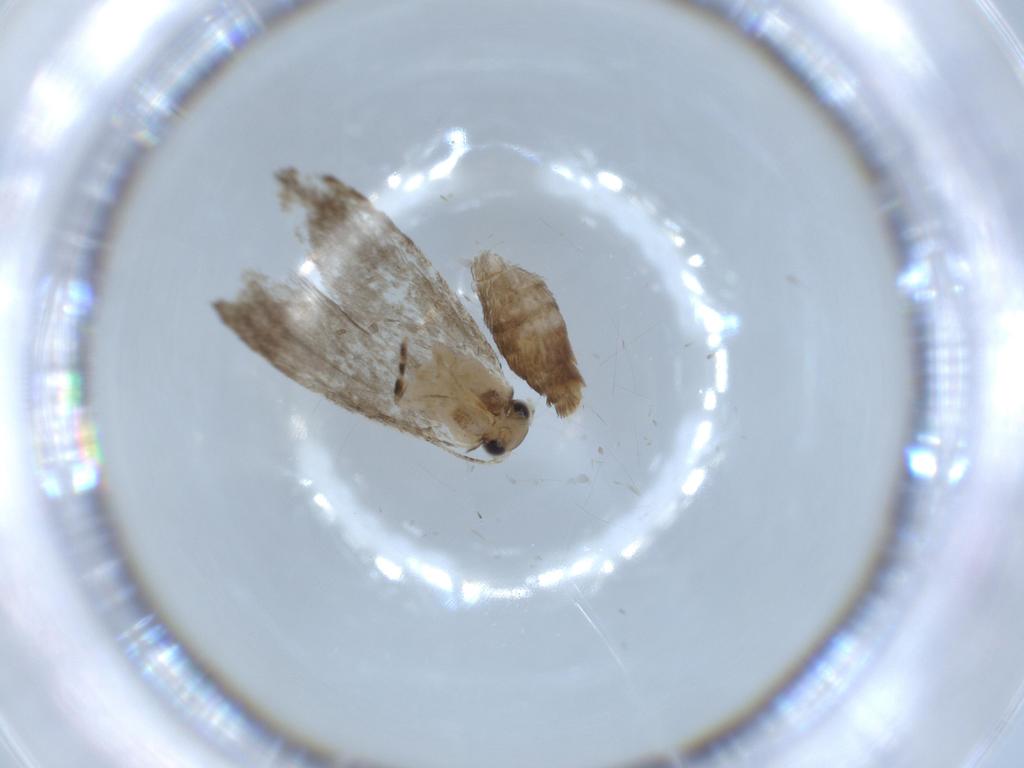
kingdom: Animalia
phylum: Arthropoda
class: Insecta
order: Lepidoptera
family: Tineidae
